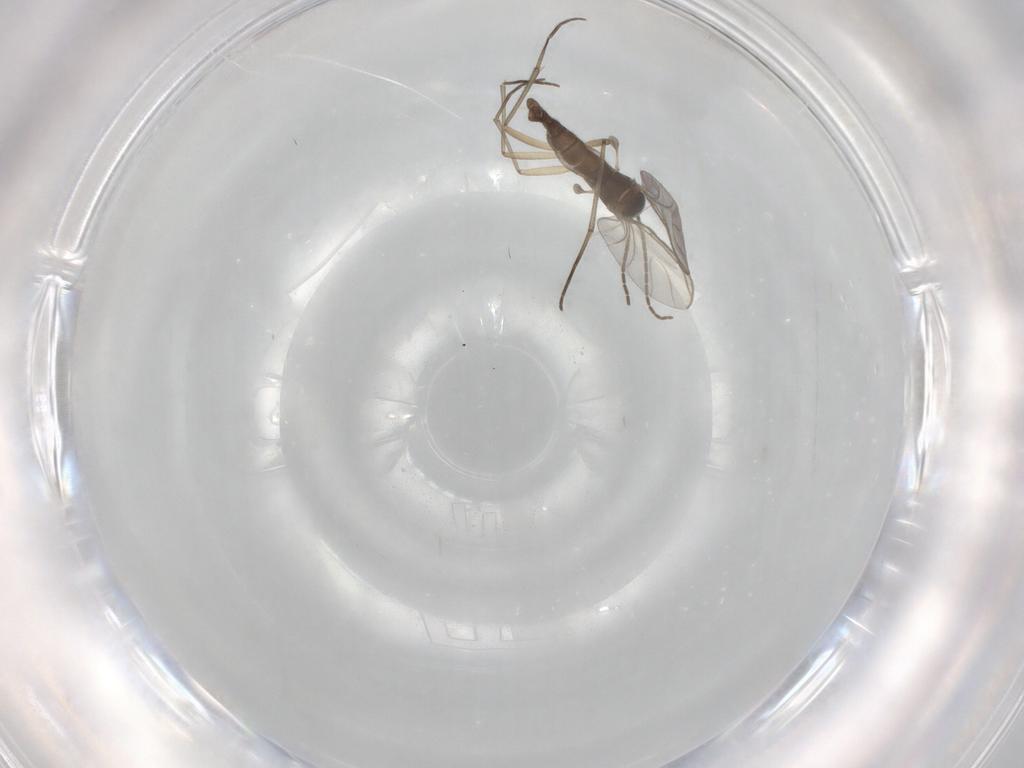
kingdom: Animalia
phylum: Arthropoda
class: Insecta
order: Diptera
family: Sciaridae
